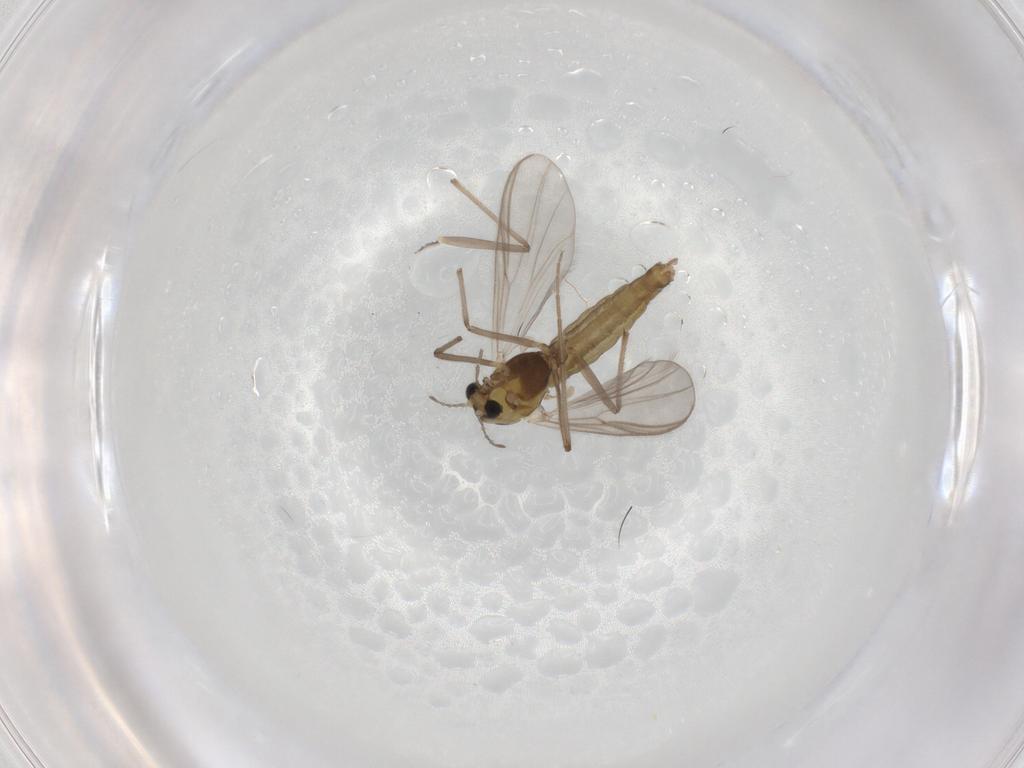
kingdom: Animalia
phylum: Arthropoda
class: Insecta
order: Diptera
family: Chironomidae
